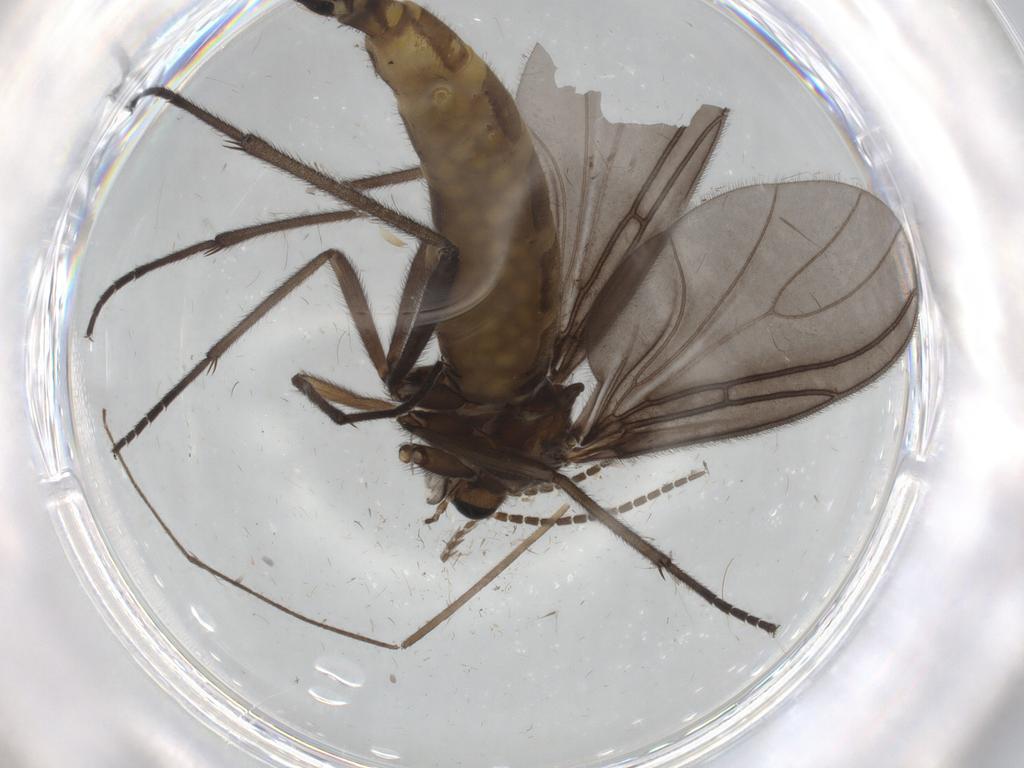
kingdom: Animalia
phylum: Arthropoda
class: Insecta
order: Diptera
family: Sciaridae
